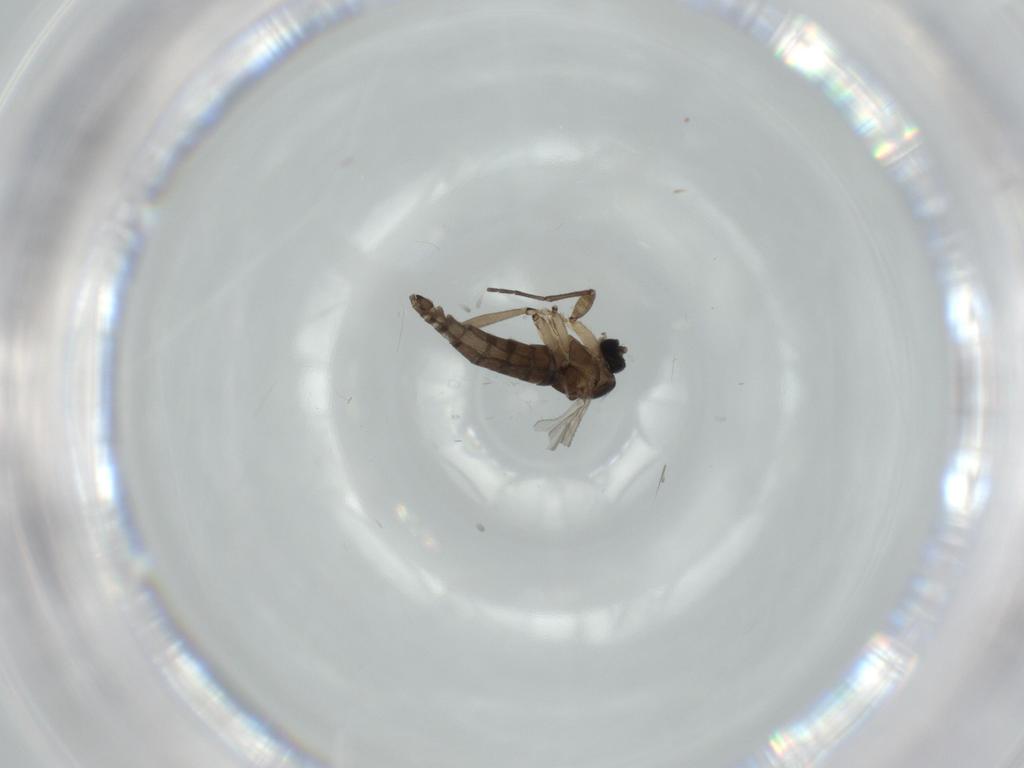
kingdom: Animalia
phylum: Arthropoda
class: Insecta
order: Diptera
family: Sciaridae
